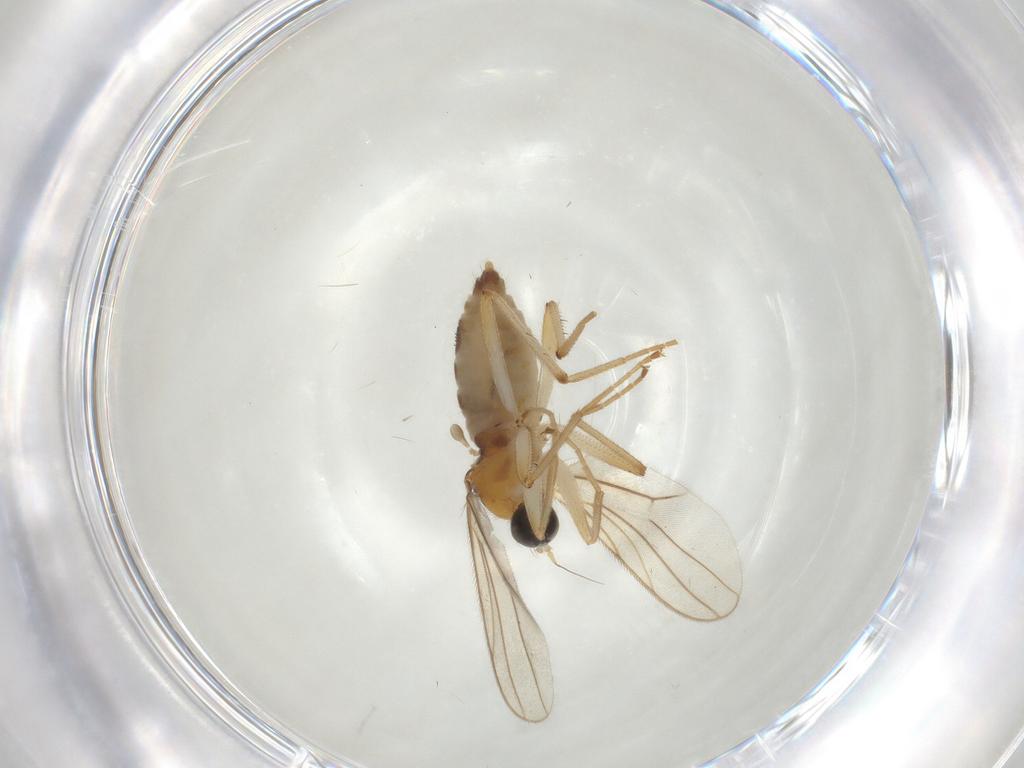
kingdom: Animalia
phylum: Arthropoda
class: Insecta
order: Diptera
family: Hybotidae
